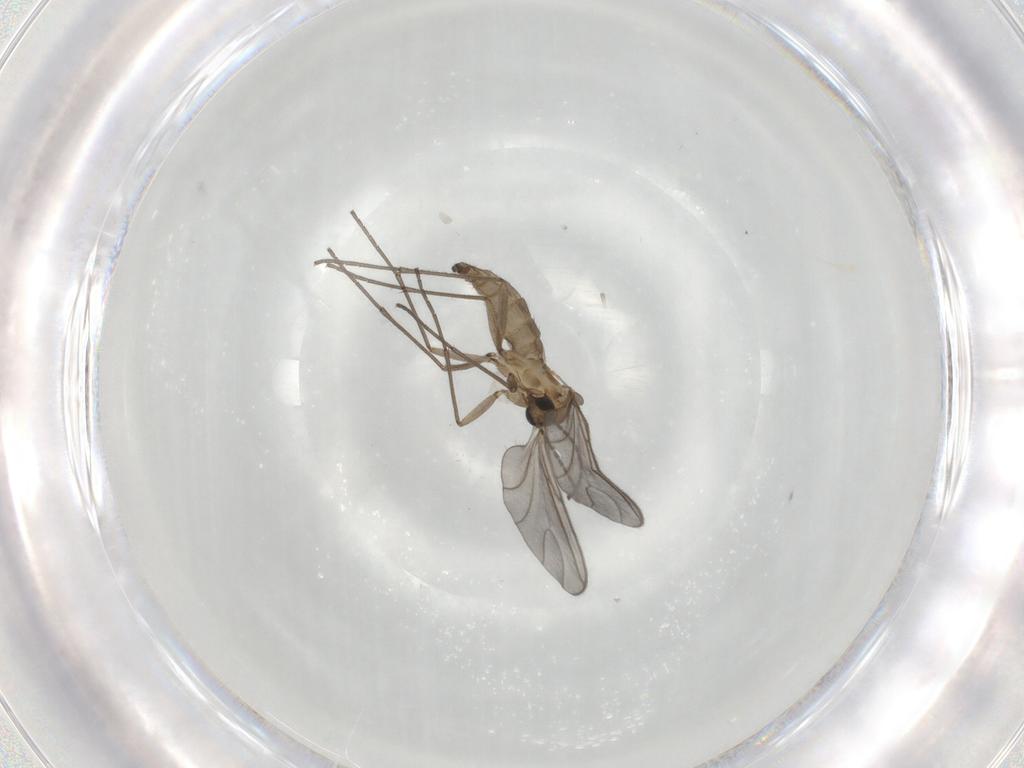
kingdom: Animalia
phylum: Arthropoda
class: Insecta
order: Diptera
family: Sciaridae
